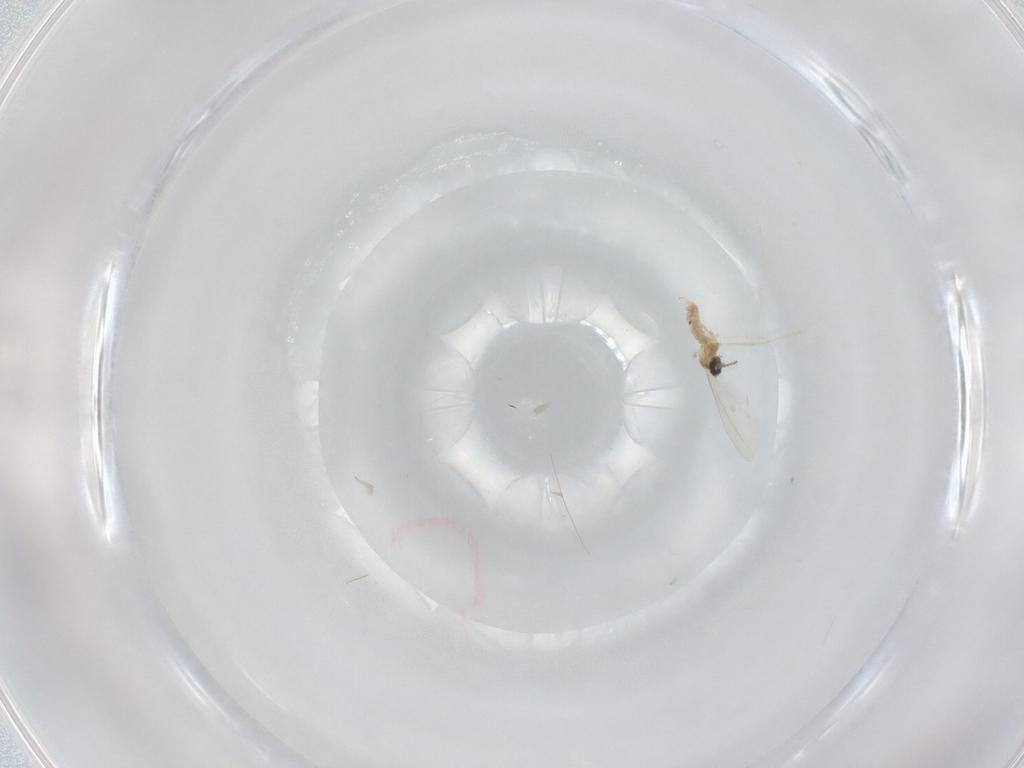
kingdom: Animalia
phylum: Arthropoda
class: Insecta
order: Diptera
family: Cecidomyiidae
